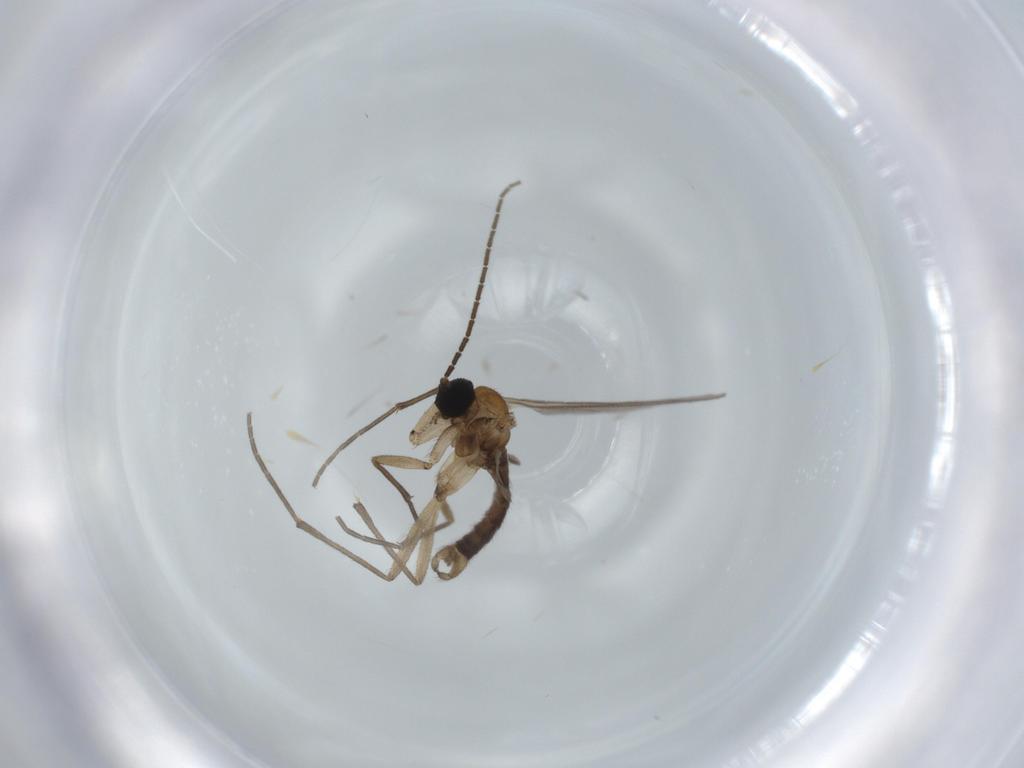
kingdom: Animalia
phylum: Arthropoda
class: Insecta
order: Diptera
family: Sciaridae
